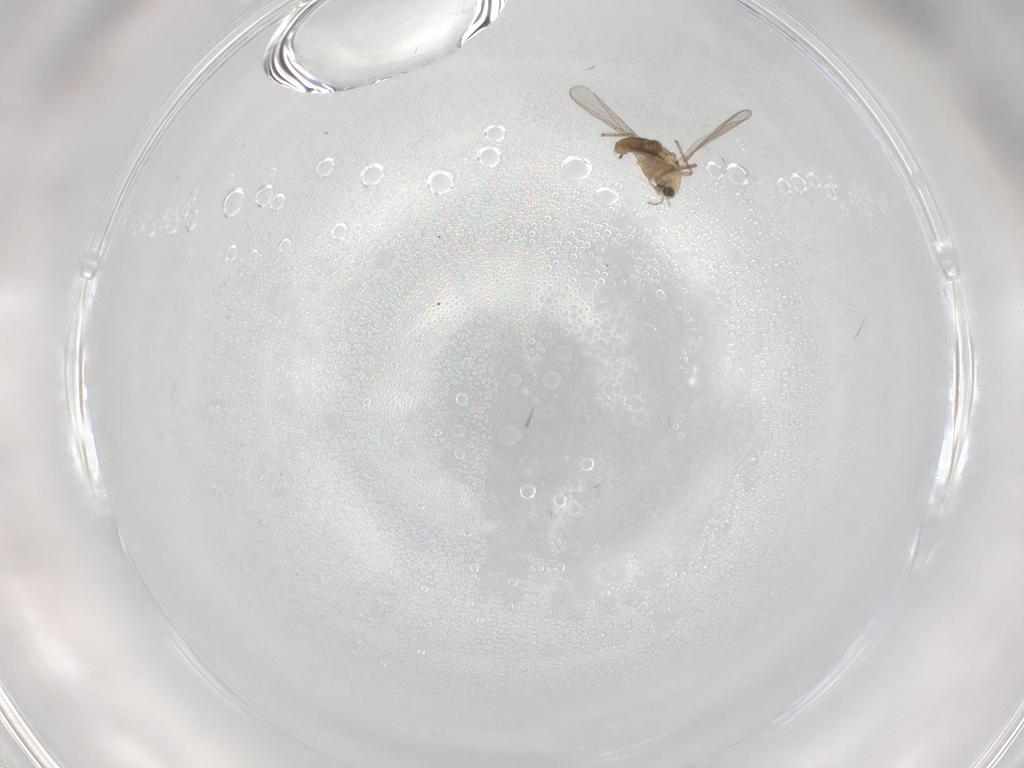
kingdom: Animalia
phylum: Arthropoda
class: Insecta
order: Diptera
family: Chironomidae
